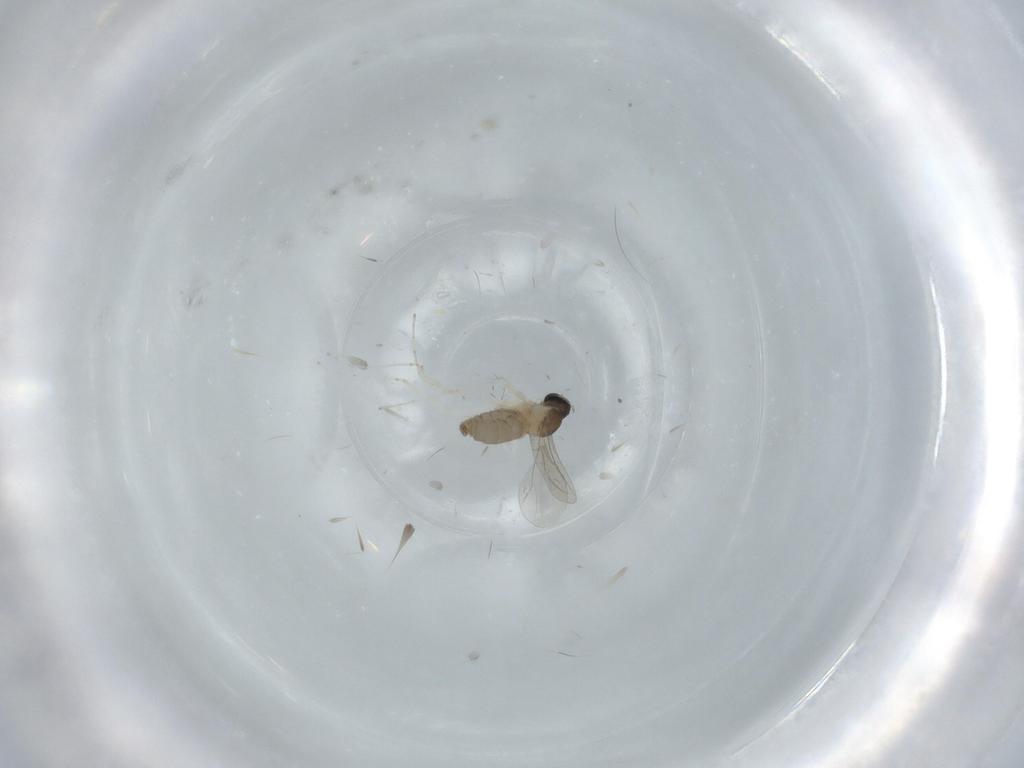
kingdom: Animalia
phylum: Arthropoda
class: Insecta
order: Diptera
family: Cecidomyiidae
